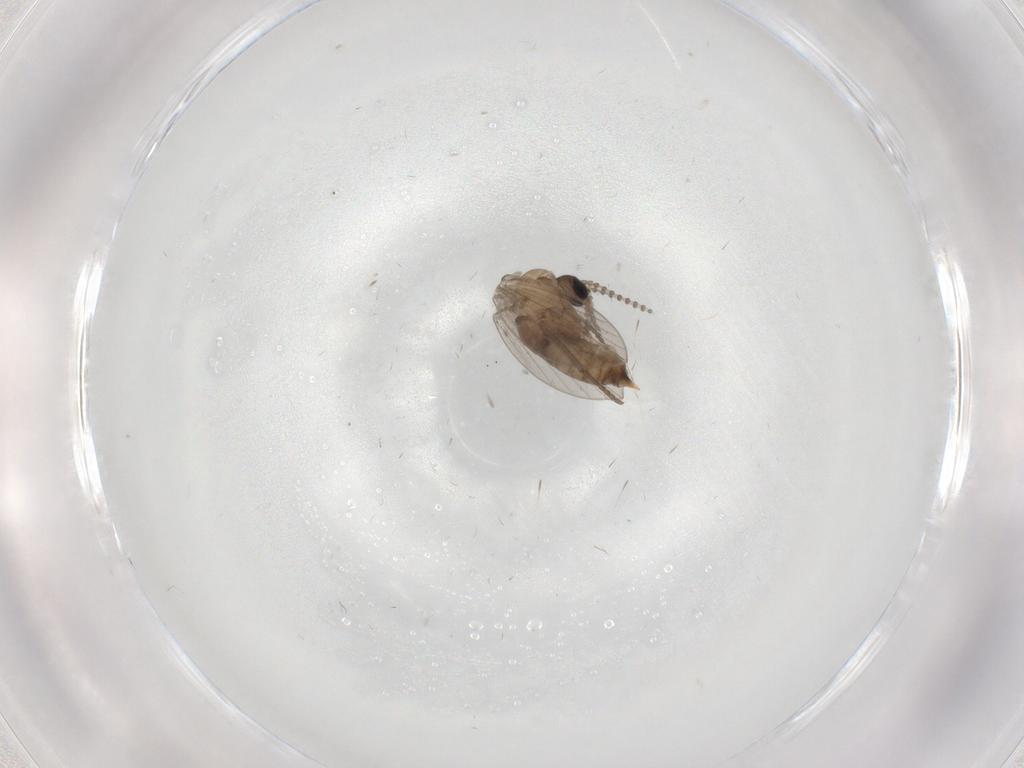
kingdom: Animalia
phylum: Arthropoda
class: Insecta
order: Diptera
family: Psychodidae
